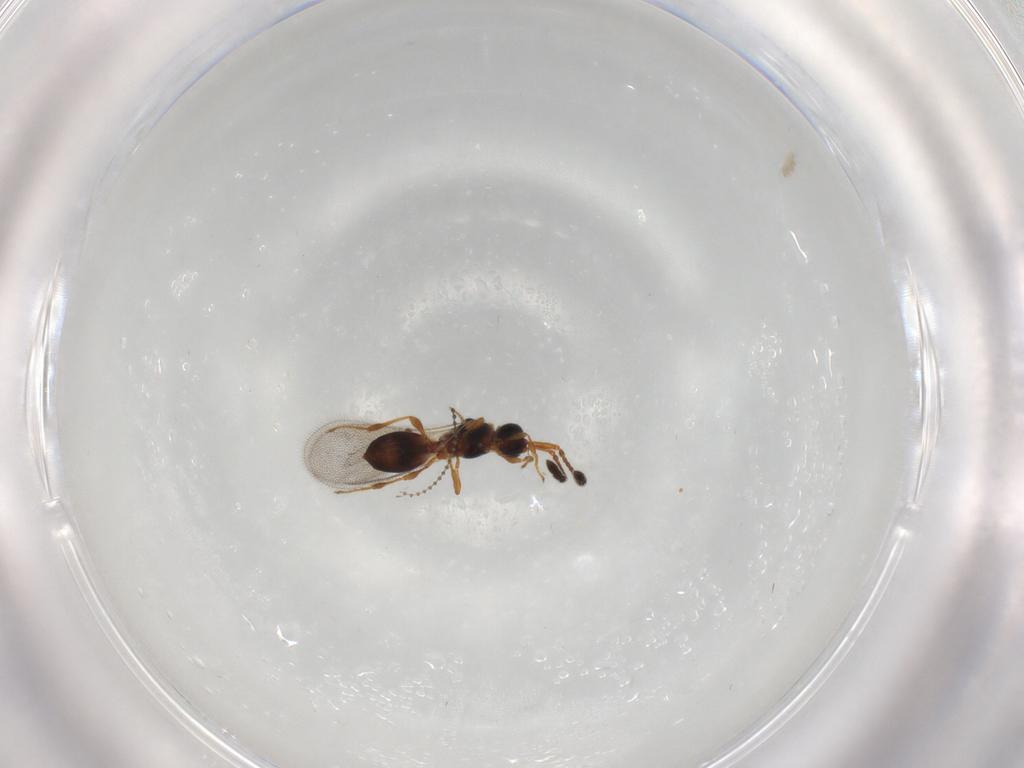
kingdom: Animalia
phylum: Arthropoda
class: Insecta
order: Hymenoptera
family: Diapriidae
